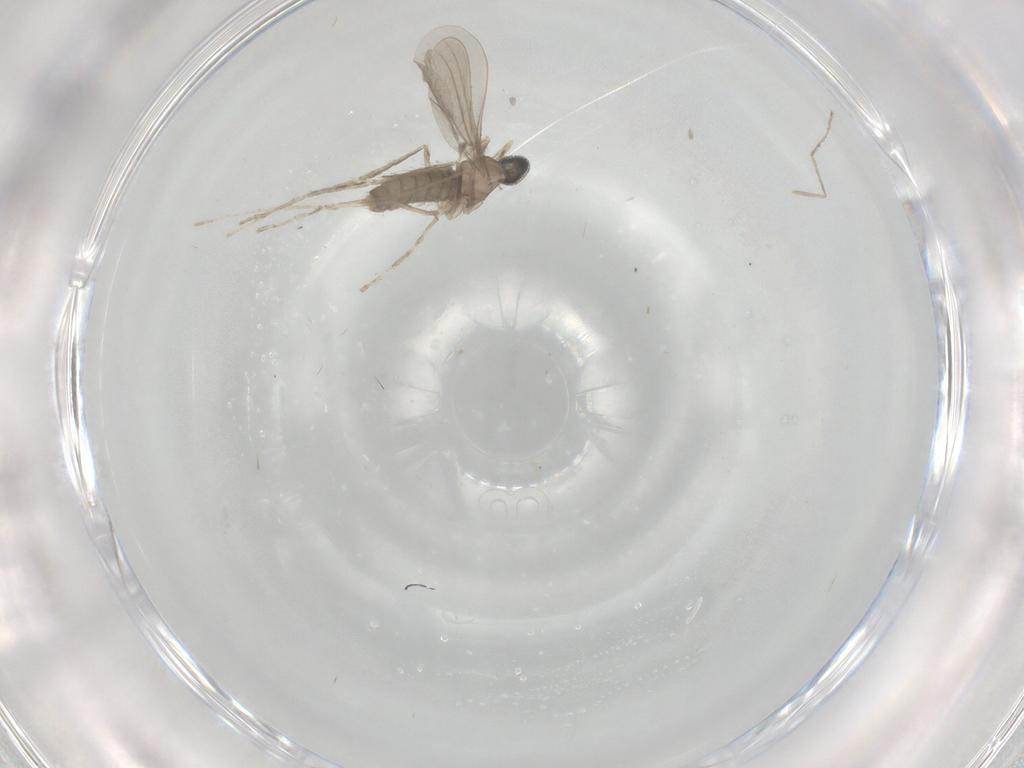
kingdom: Animalia
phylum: Arthropoda
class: Insecta
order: Diptera
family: Cecidomyiidae
